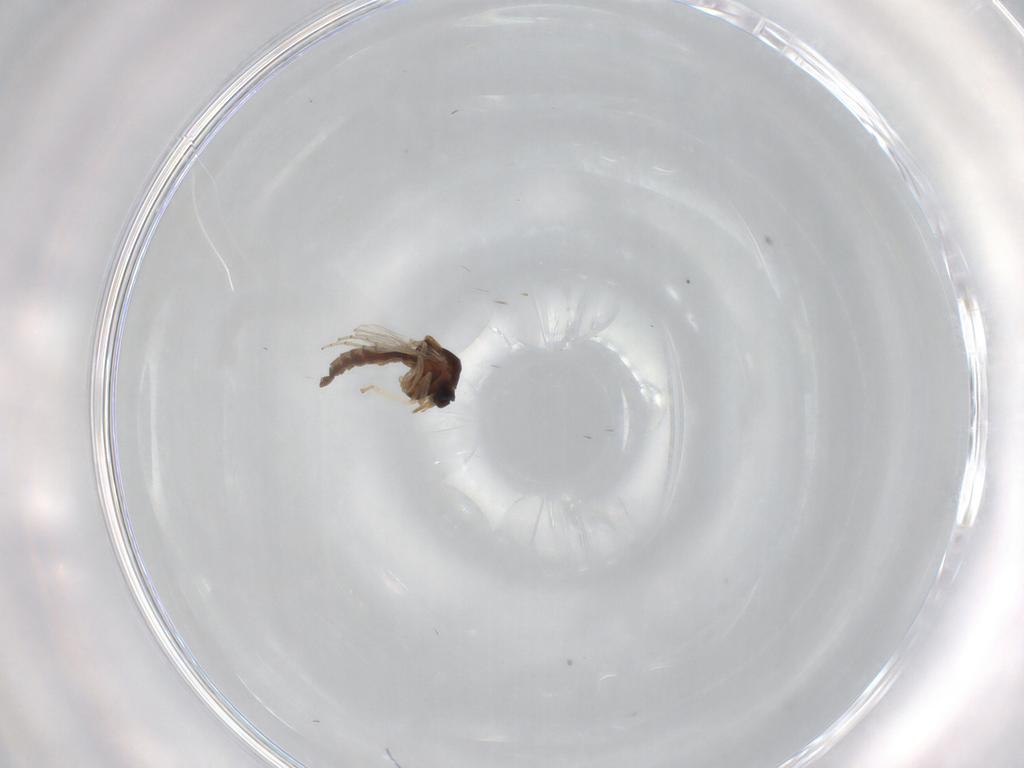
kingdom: Animalia
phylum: Arthropoda
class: Insecta
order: Diptera
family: Ceratopogonidae
